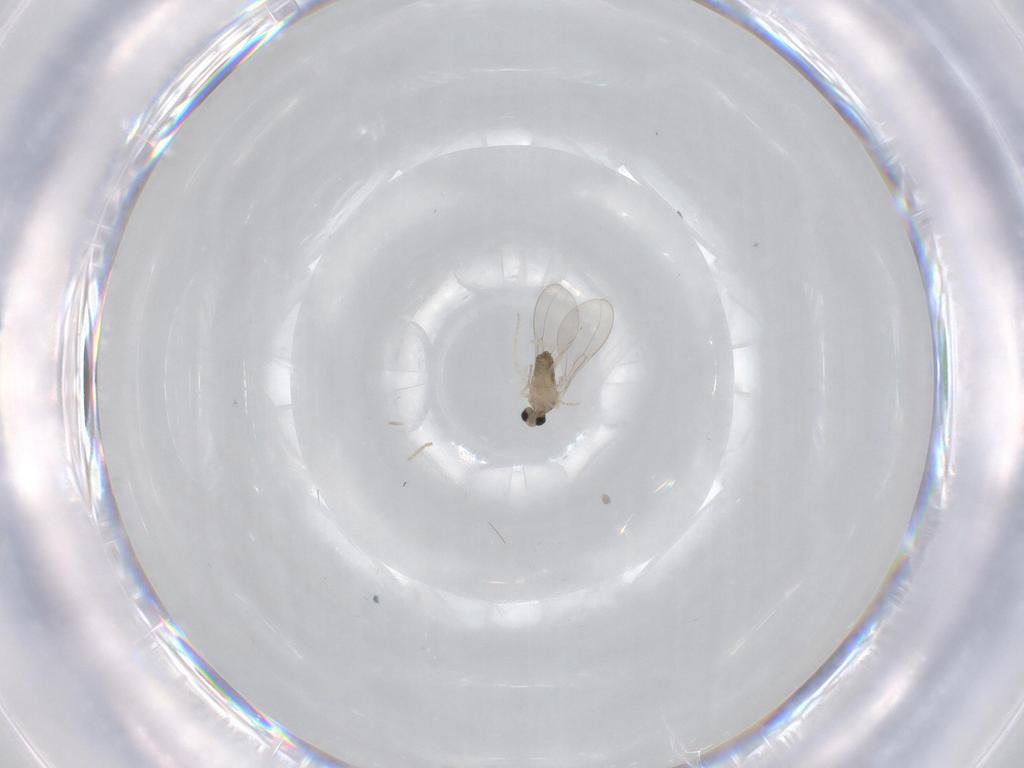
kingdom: Animalia
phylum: Arthropoda
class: Insecta
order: Diptera
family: Cecidomyiidae
